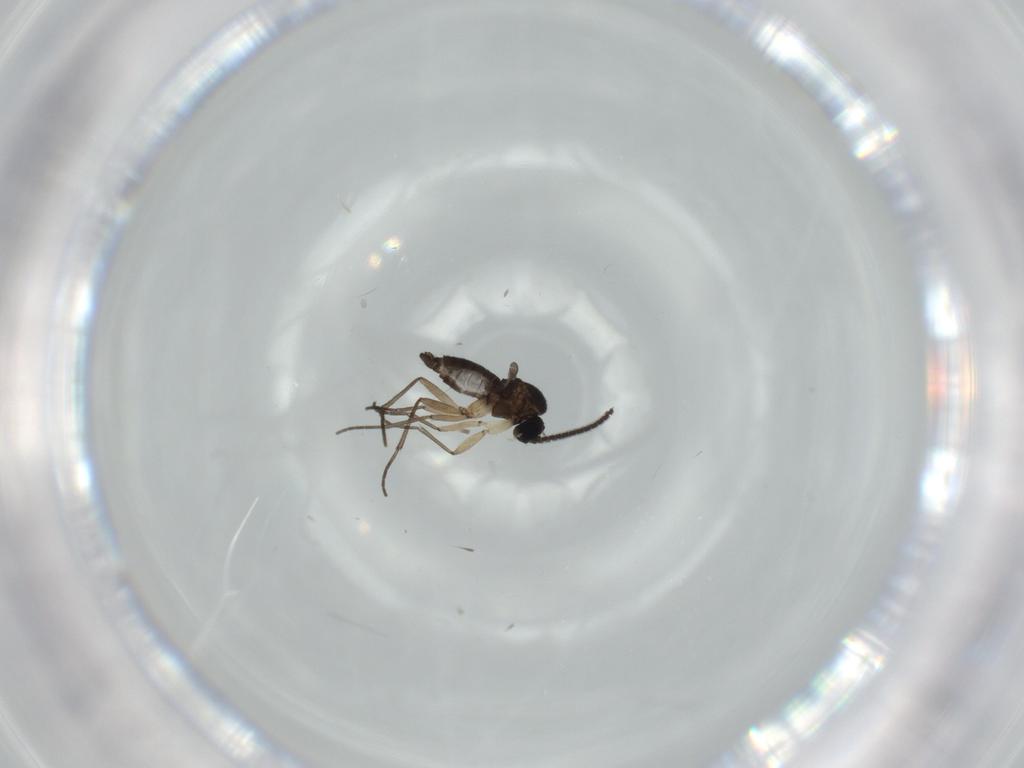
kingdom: Animalia
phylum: Arthropoda
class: Insecta
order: Diptera
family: Sciaridae
